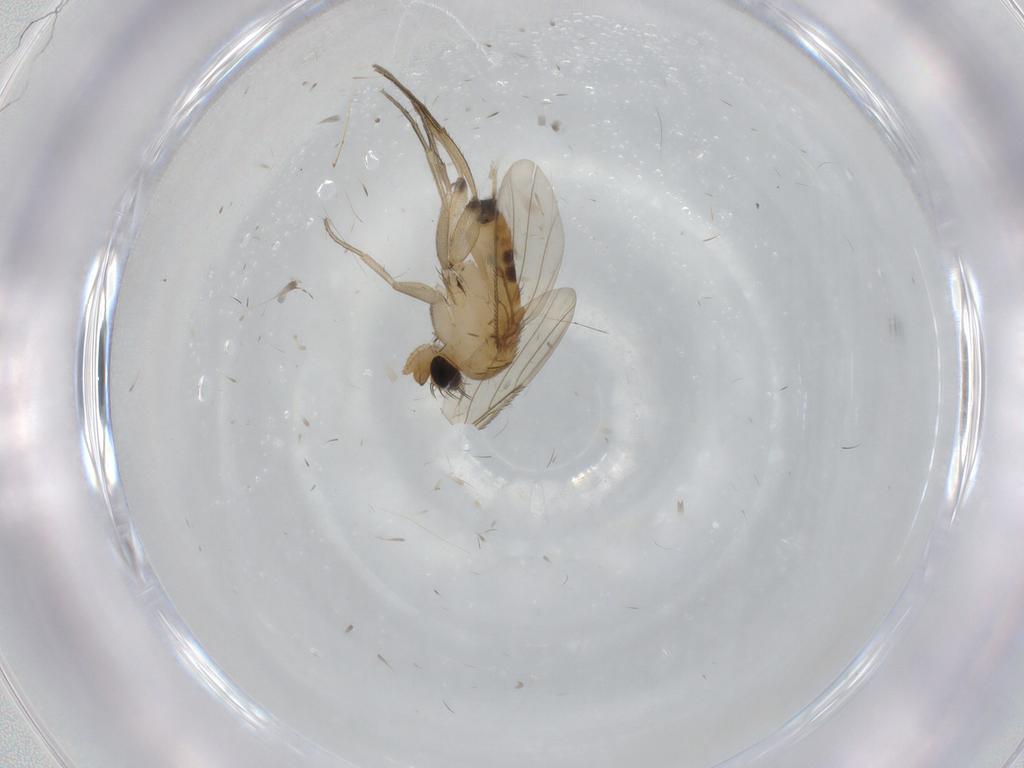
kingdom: Animalia
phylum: Arthropoda
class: Insecta
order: Diptera
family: Phoridae
